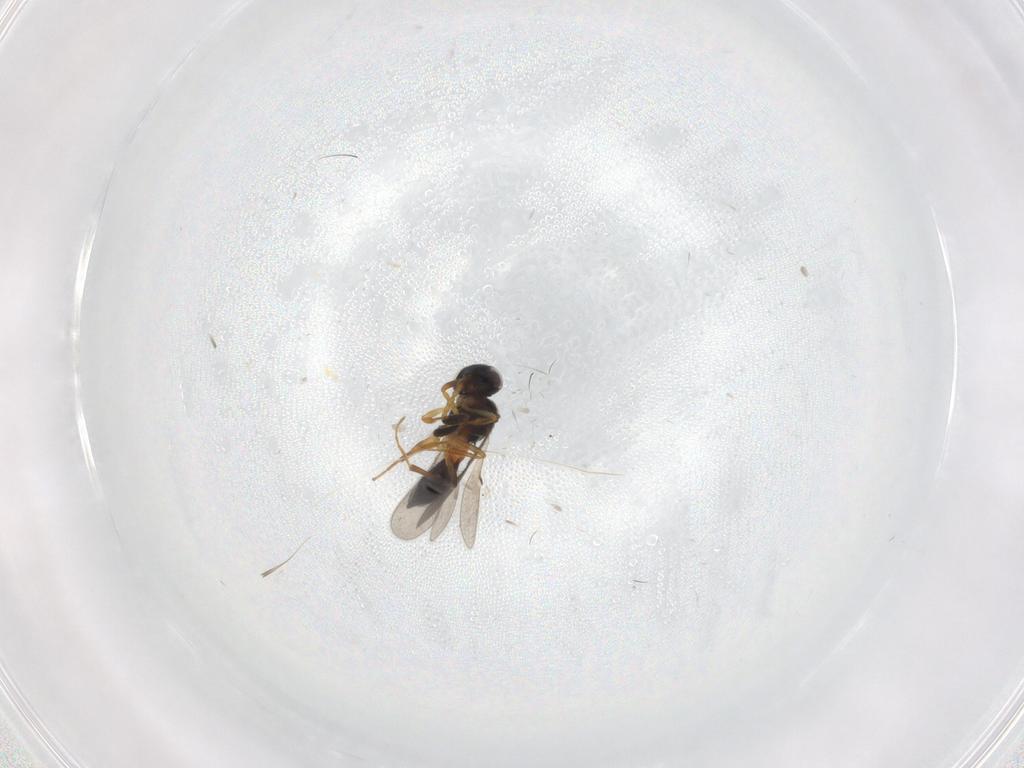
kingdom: Animalia
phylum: Arthropoda
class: Insecta
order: Hymenoptera
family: Scelionidae
